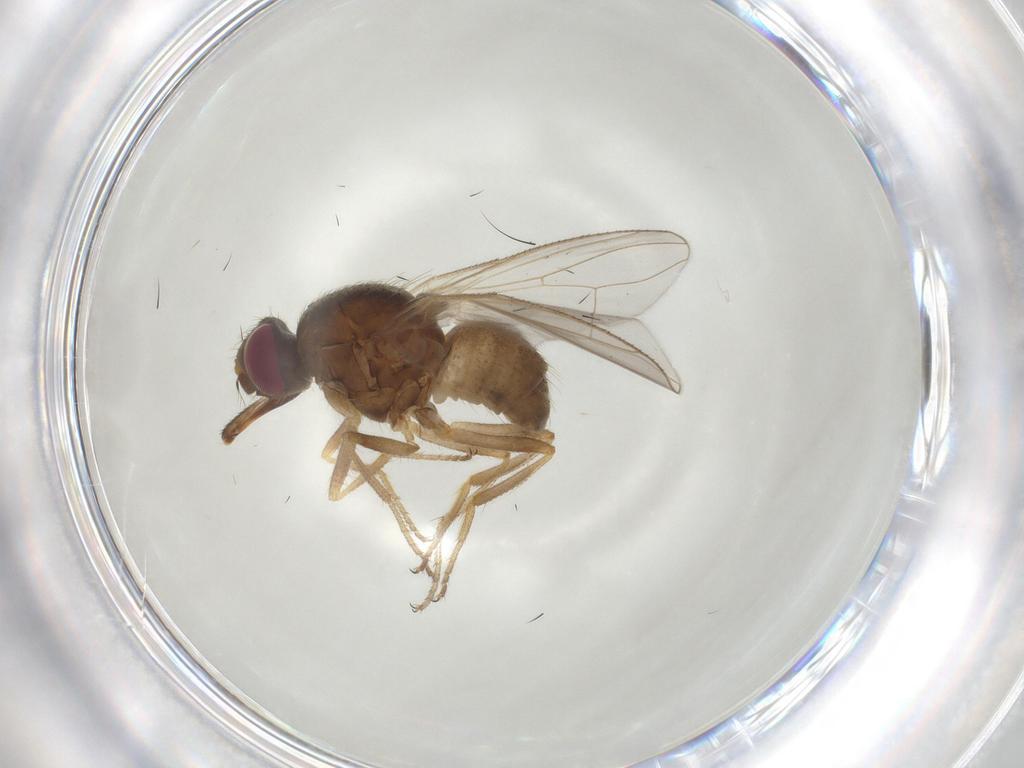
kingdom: Animalia
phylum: Arthropoda
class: Insecta
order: Diptera
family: Muscidae
